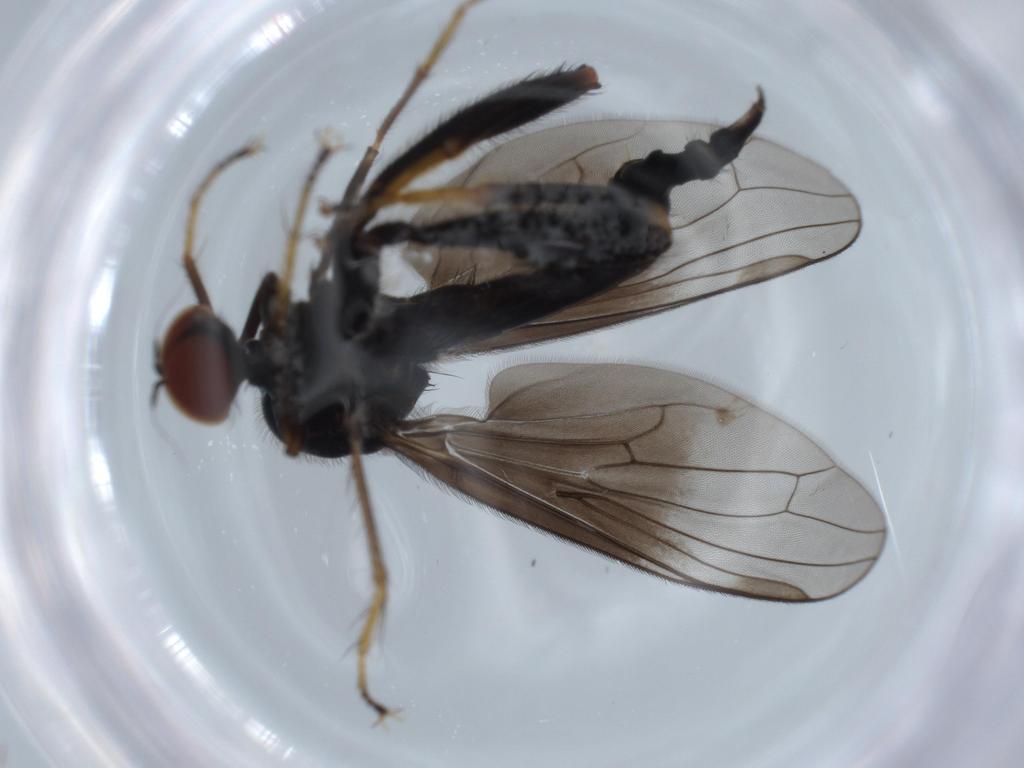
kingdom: Animalia
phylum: Arthropoda
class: Insecta
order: Diptera
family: Hybotidae
